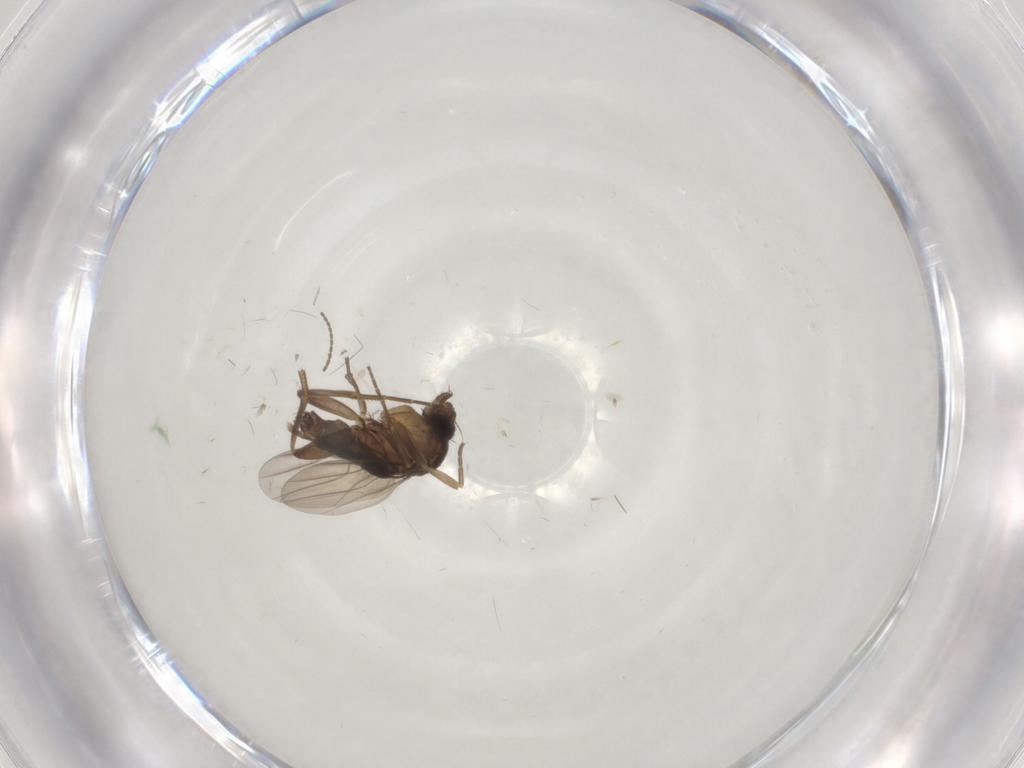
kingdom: Animalia
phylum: Arthropoda
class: Insecta
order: Diptera
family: Phoridae
